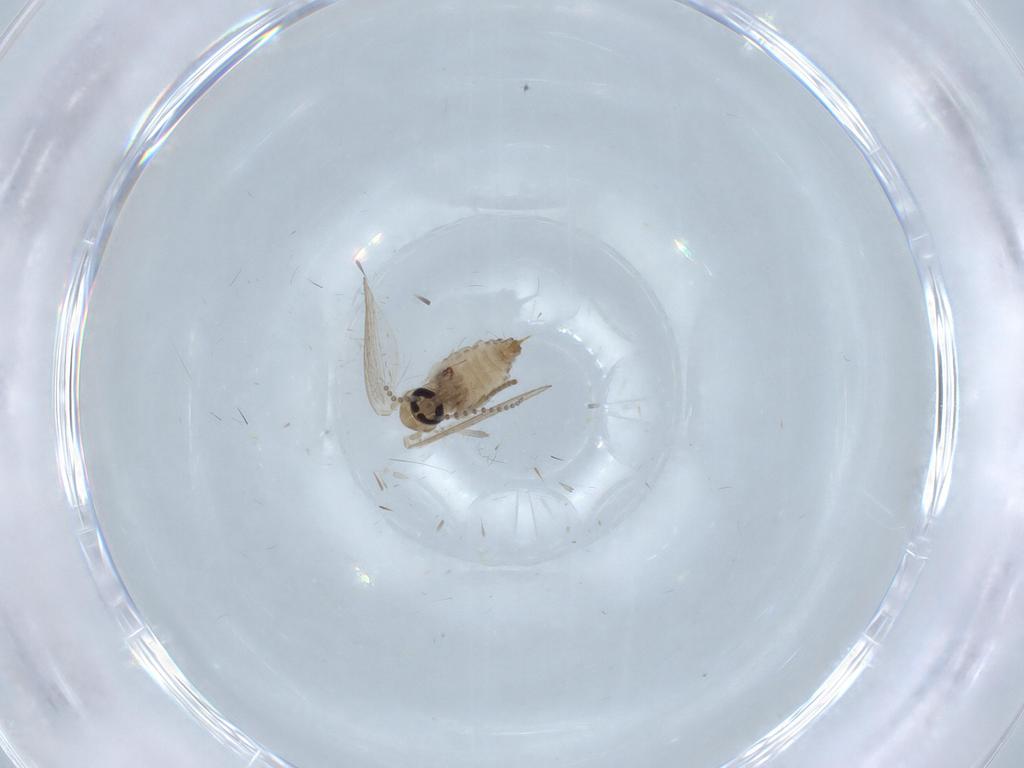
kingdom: Animalia
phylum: Arthropoda
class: Insecta
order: Diptera
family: Psychodidae
